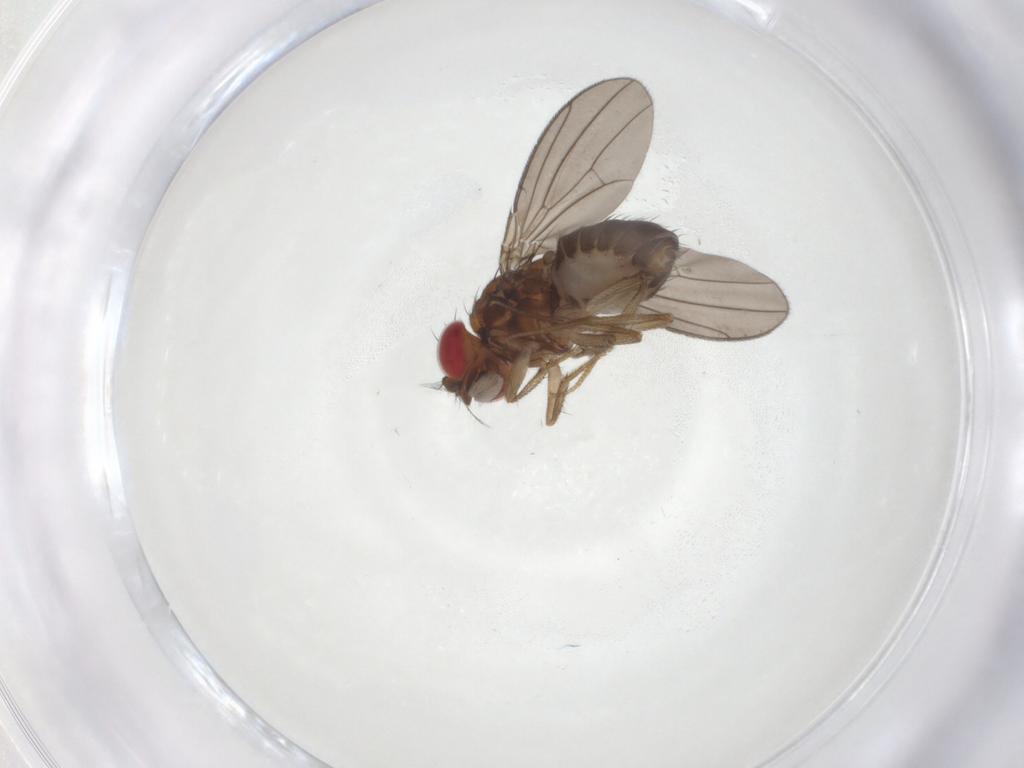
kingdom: Animalia
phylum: Arthropoda
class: Insecta
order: Diptera
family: Drosophilidae
